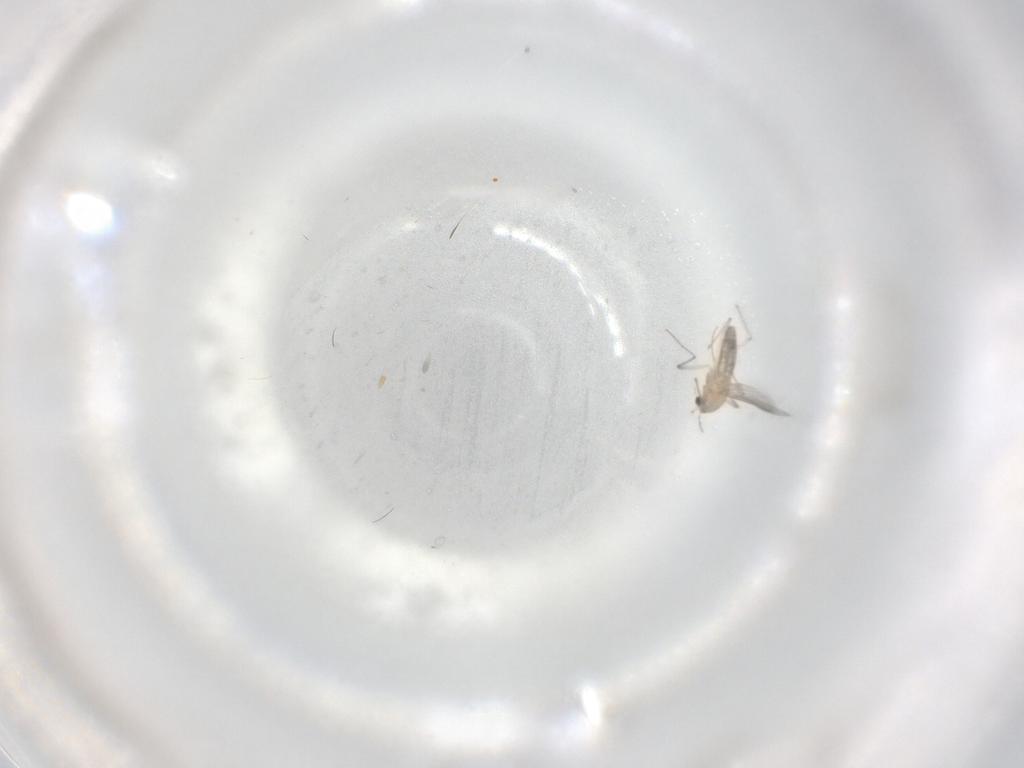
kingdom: Animalia
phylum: Arthropoda
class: Insecta
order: Diptera
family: Chironomidae
